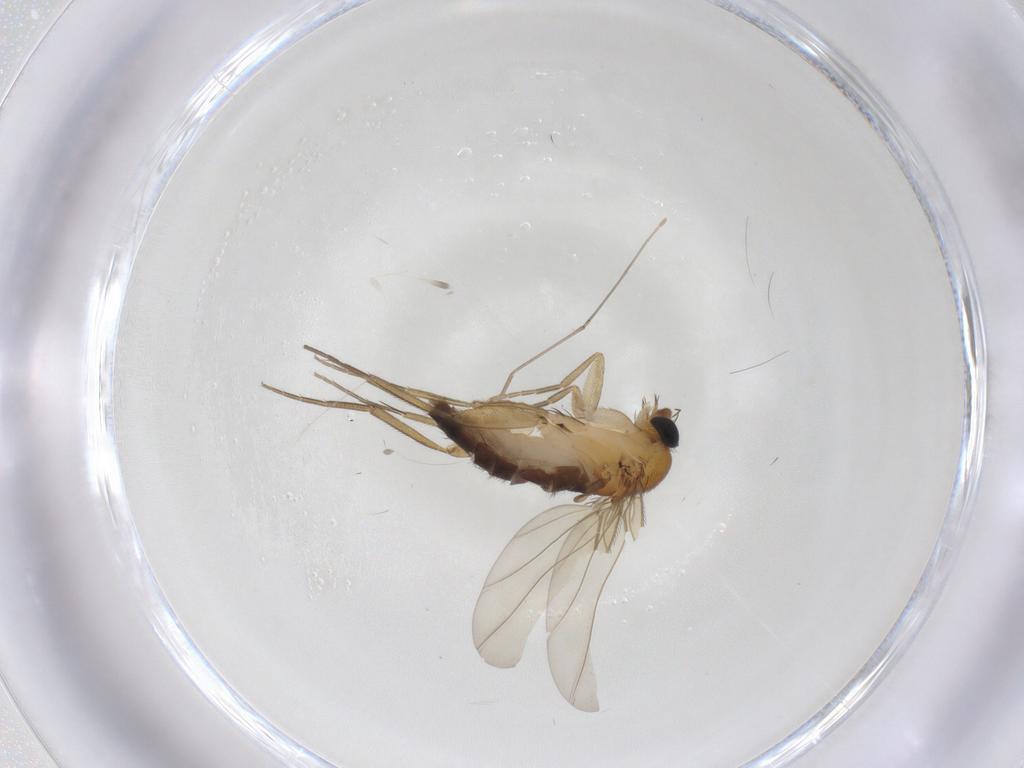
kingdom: Animalia
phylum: Arthropoda
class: Insecta
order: Diptera
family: Phoridae
